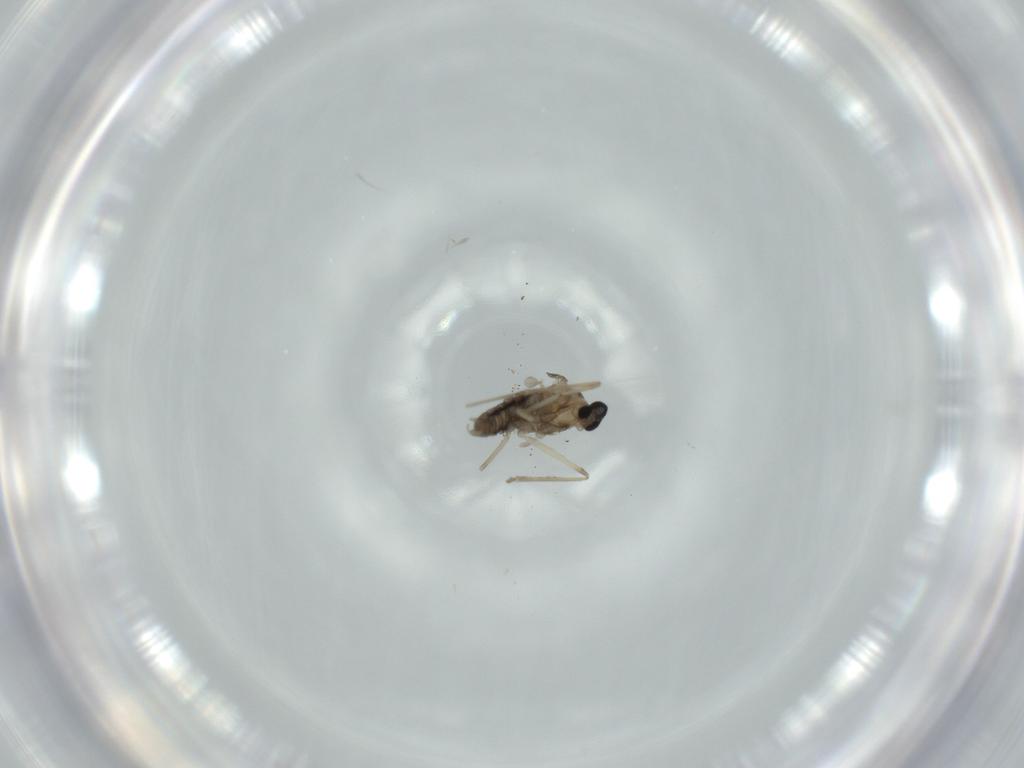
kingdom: Animalia
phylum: Arthropoda
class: Insecta
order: Diptera
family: Cecidomyiidae
